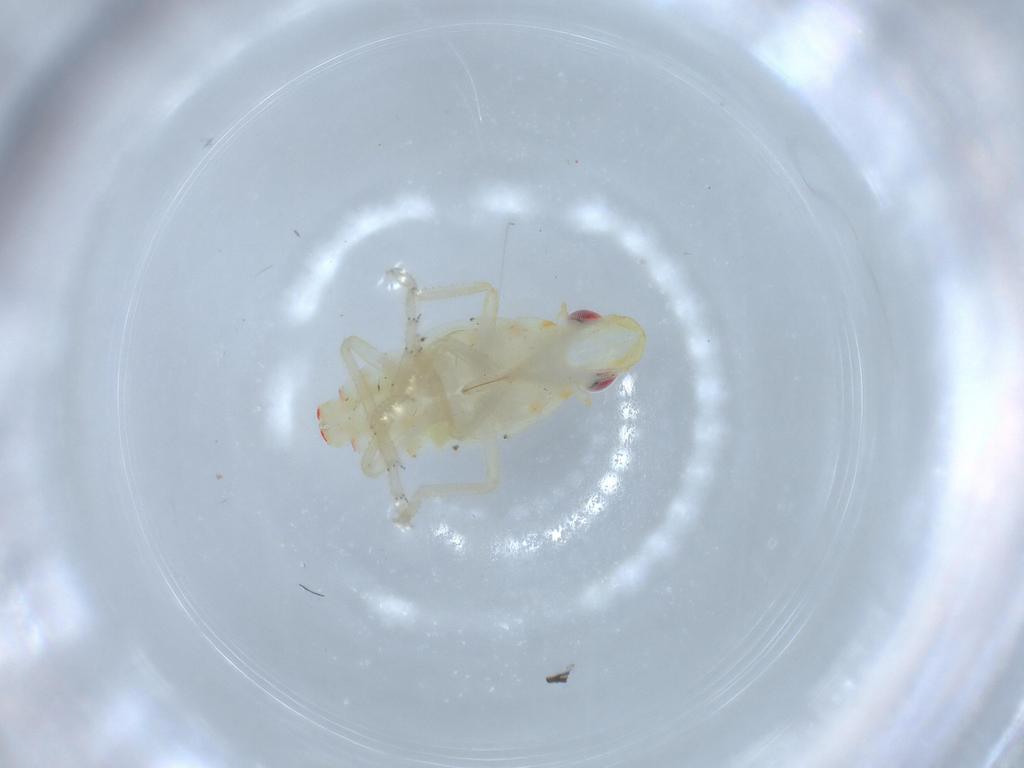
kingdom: Animalia
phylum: Arthropoda
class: Insecta
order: Hemiptera
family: Tropiduchidae
